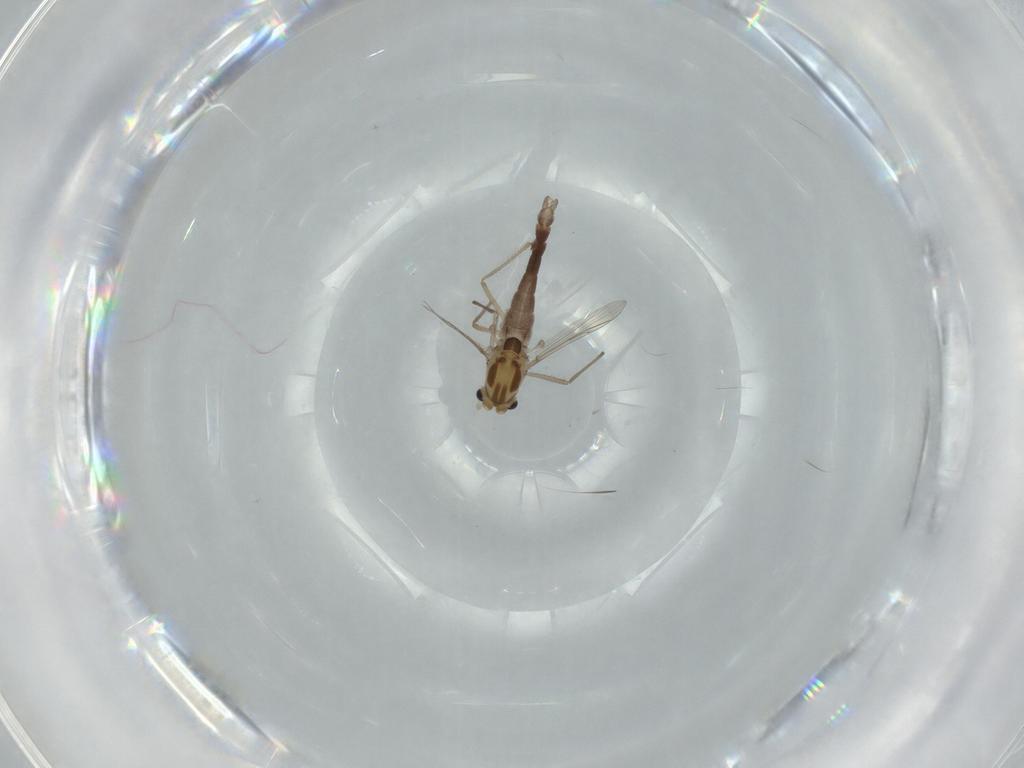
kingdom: Animalia
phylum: Arthropoda
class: Insecta
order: Diptera
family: Chironomidae
